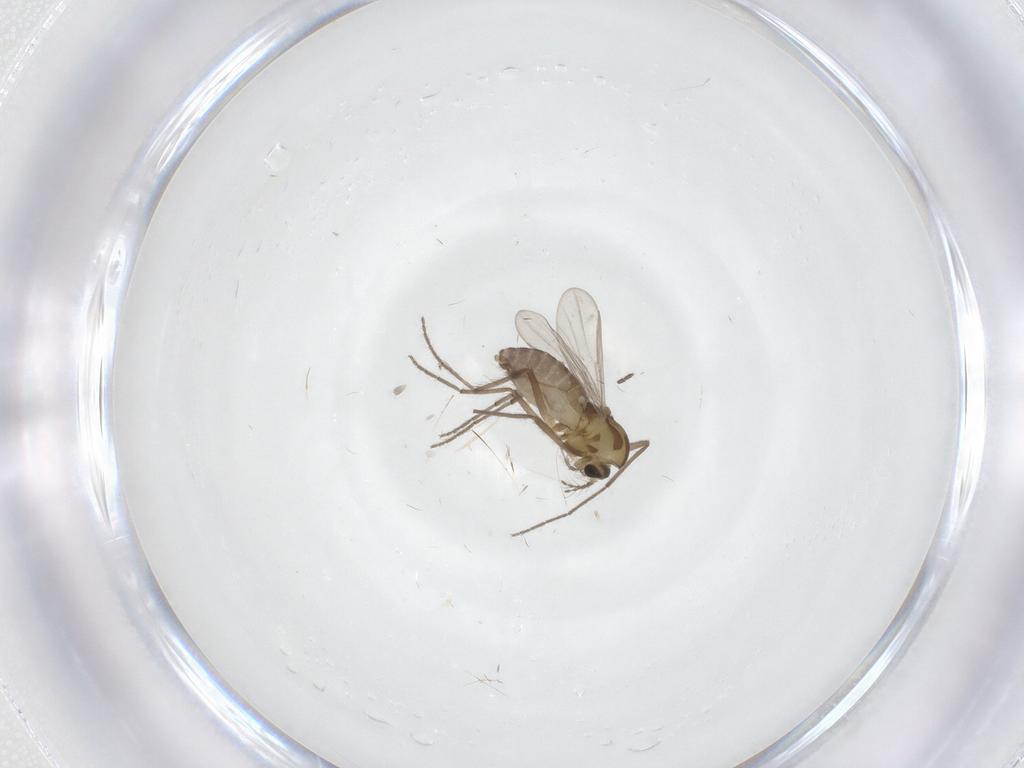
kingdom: Animalia
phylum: Arthropoda
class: Insecta
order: Diptera
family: Chironomidae
